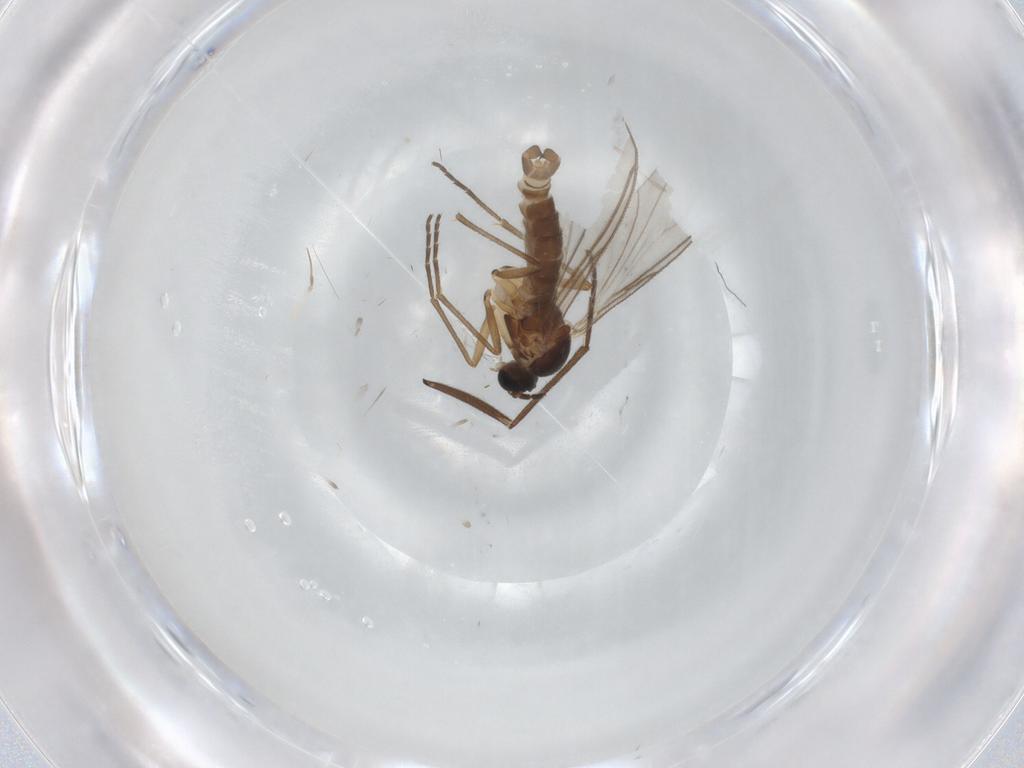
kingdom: Animalia
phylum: Arthropoda
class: Insecta
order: Diptera
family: Sciaridae
